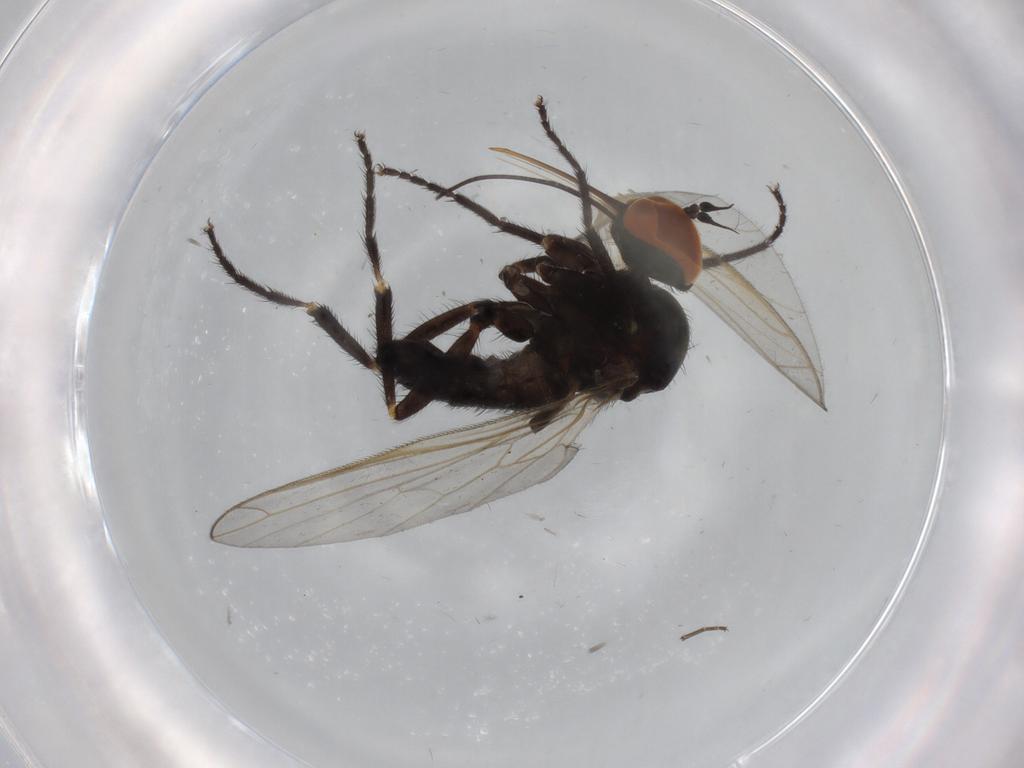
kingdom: Animalia
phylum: Arthropoda
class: Insecta
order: Diptera
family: Empididae
